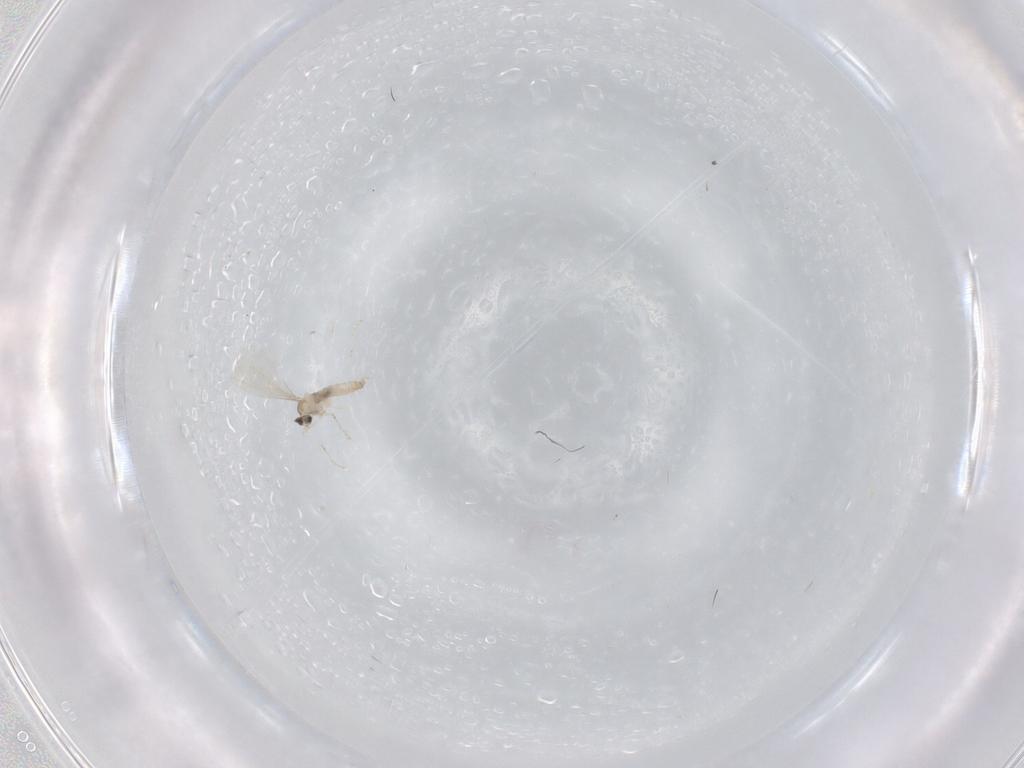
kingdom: Animalia
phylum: Arthropoda
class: Insecta
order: Diptera
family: Cecidomyiidae
